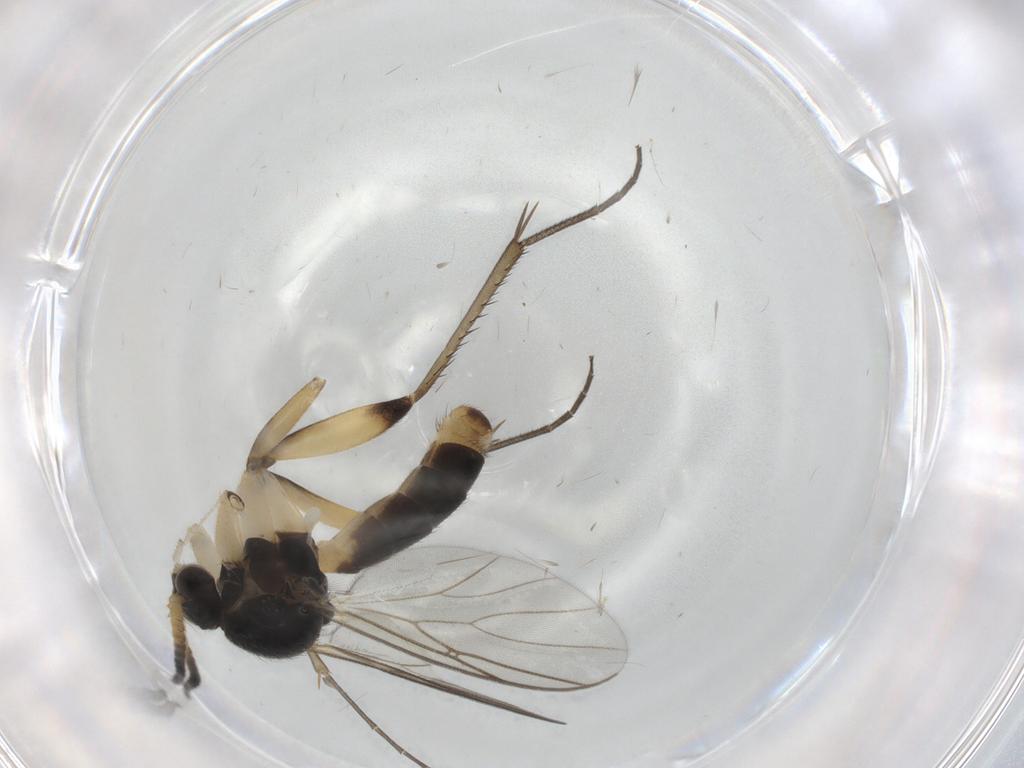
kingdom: Animalia
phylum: Arthropoda
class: Insecta
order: Diptera
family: Mycetophilidae
